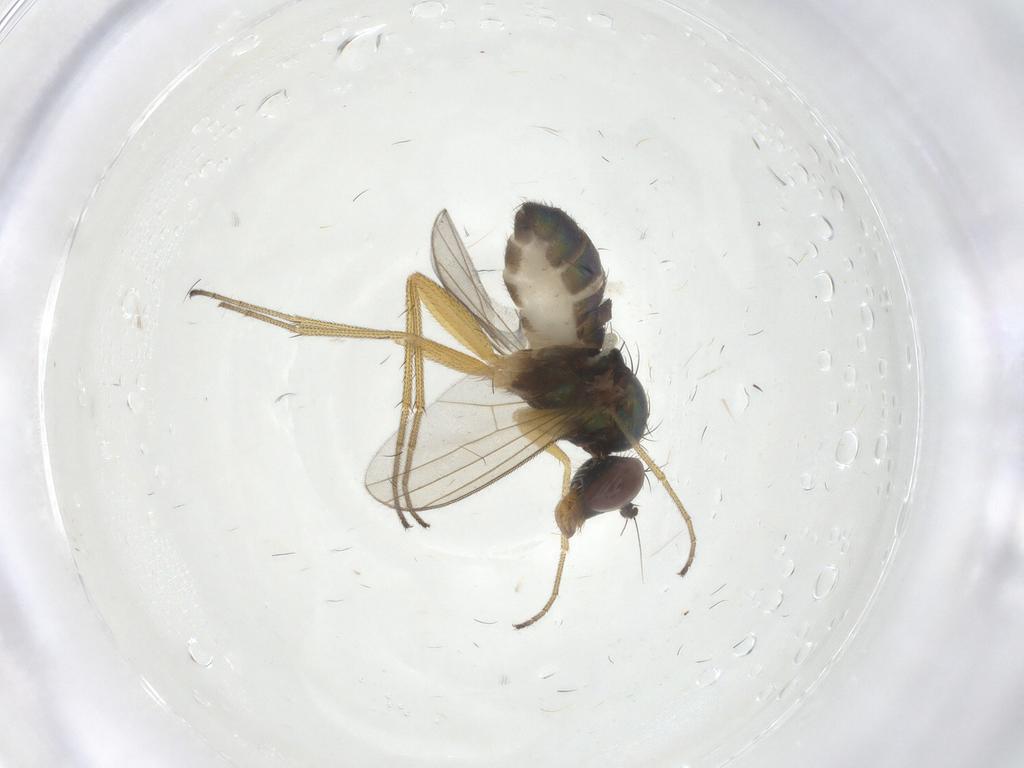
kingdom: Animalia
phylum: Arthropoda
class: Insecta
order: Diptera
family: Dolichopodidae
